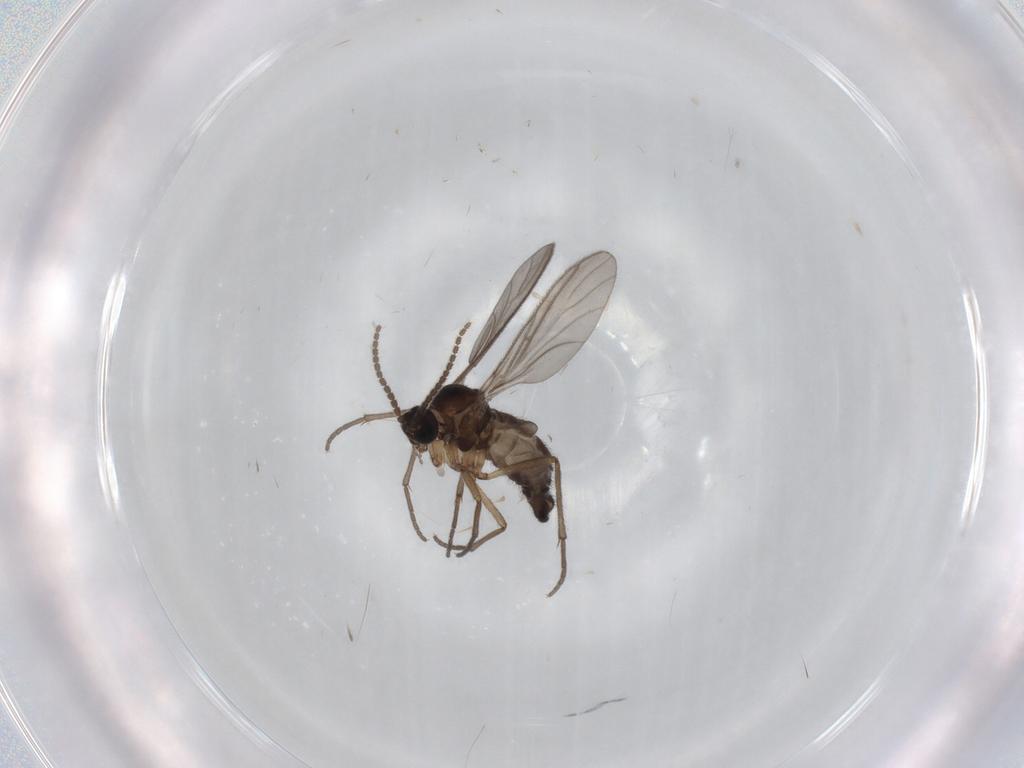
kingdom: Animalia
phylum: Arthropoda
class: Insecta
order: Diptera
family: Sciaridae
